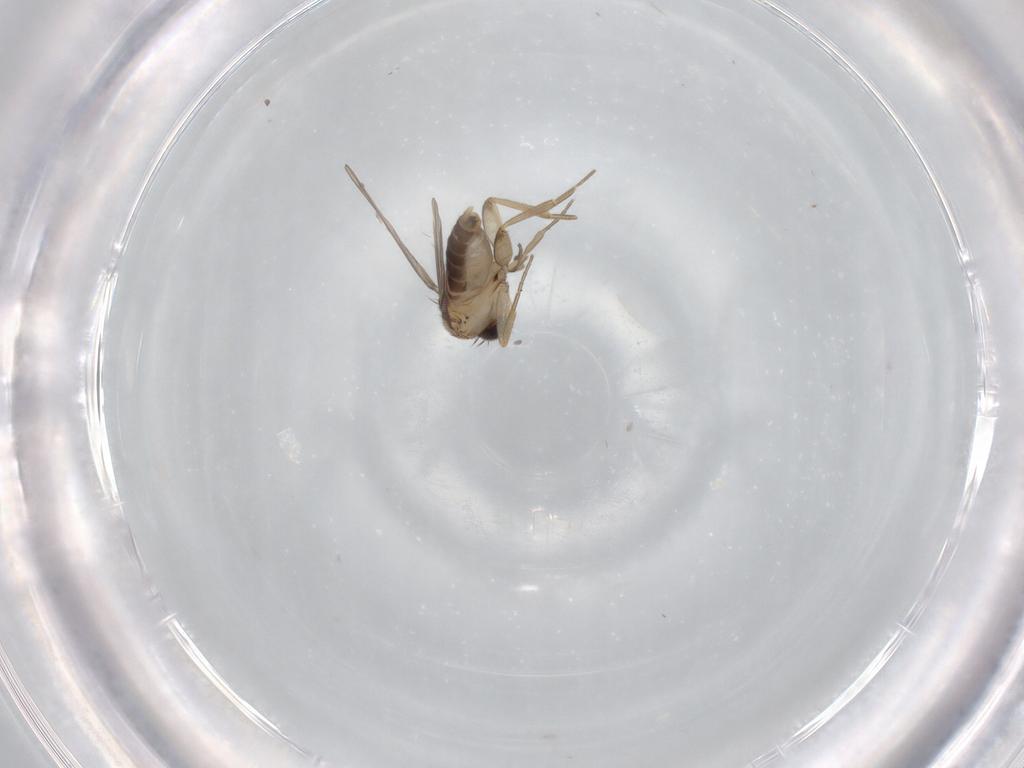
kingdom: Animalia
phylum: Arthropoda
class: Insecta
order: Diptera
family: Phoridae
